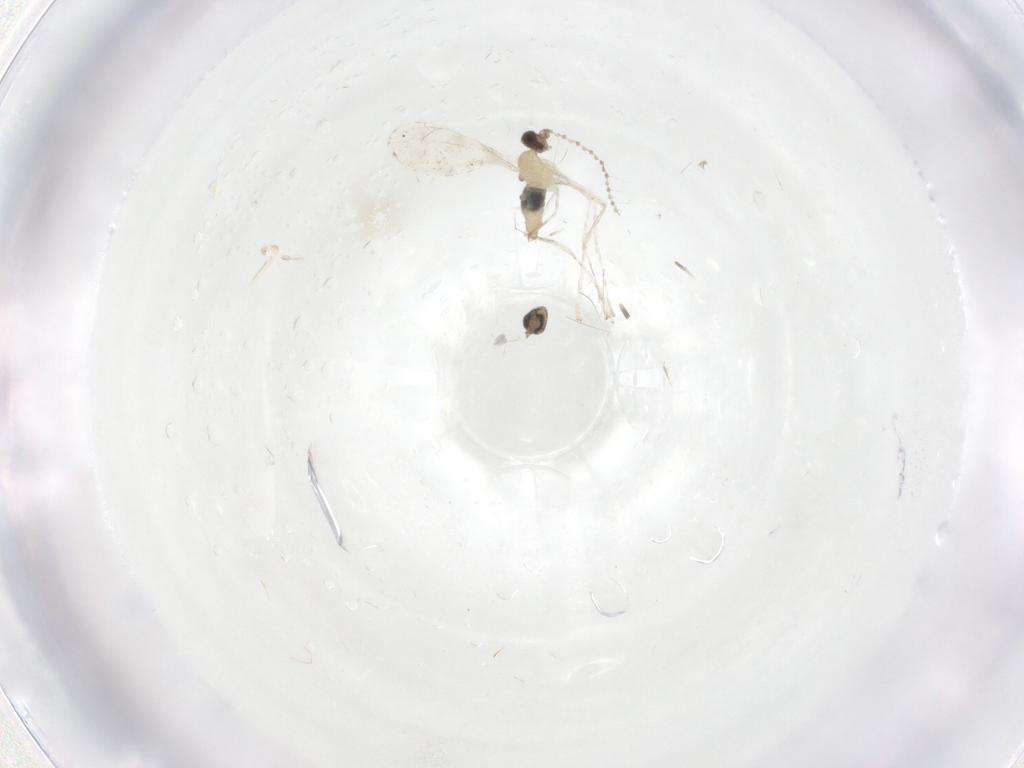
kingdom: Animalia
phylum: Arthropoda
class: Insecta
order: Diptera
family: Cecidomyiidae
